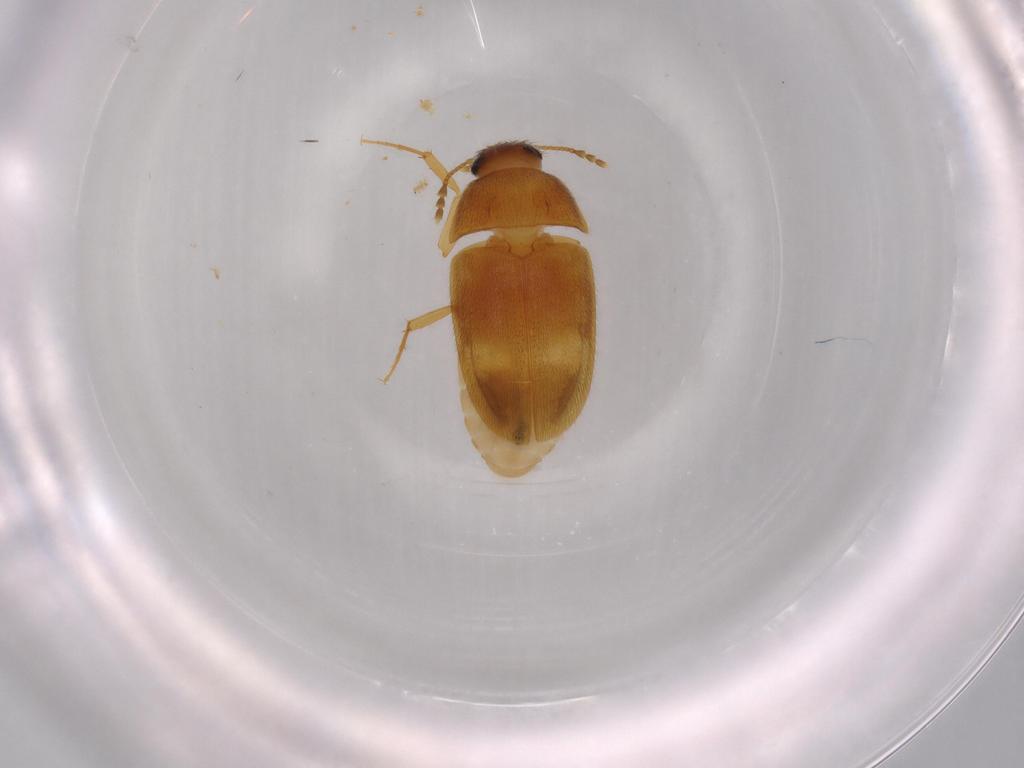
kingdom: Animalia
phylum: Arthropoda
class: Insecta
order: Coleoptera
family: Mycetophagidae
